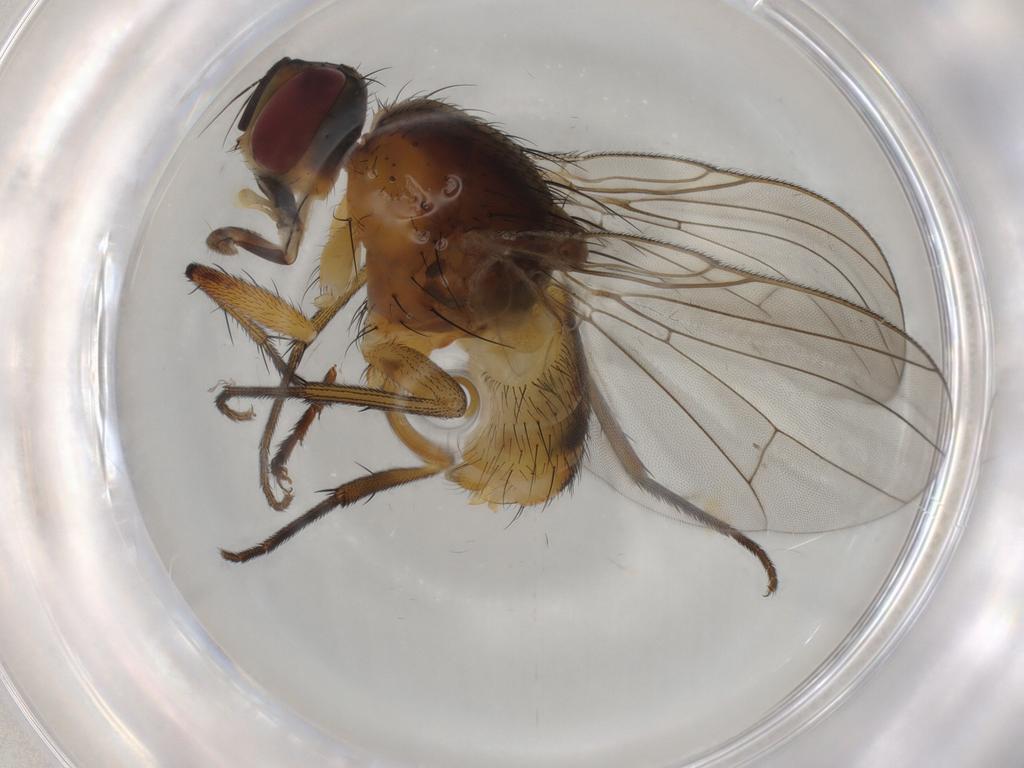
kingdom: Animalia
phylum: Arthropoda
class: Insecta
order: Diptera
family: Muscidae
